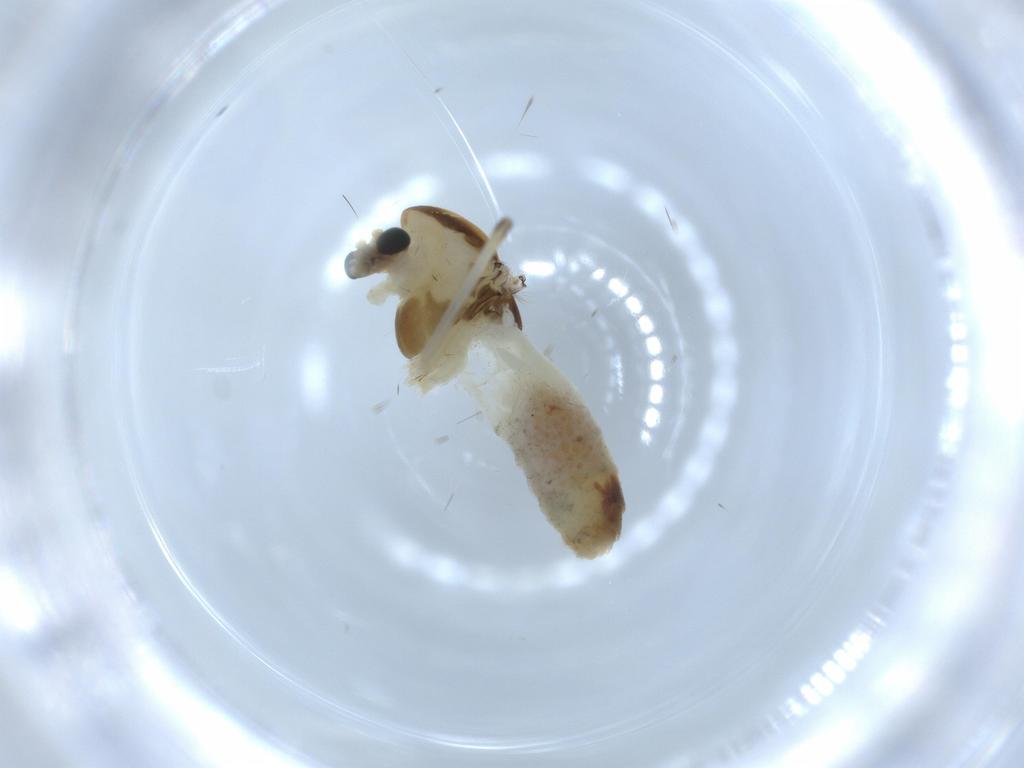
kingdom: Animalia
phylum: Arthropoda
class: Insecta
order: Diptera
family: Chironomidae
